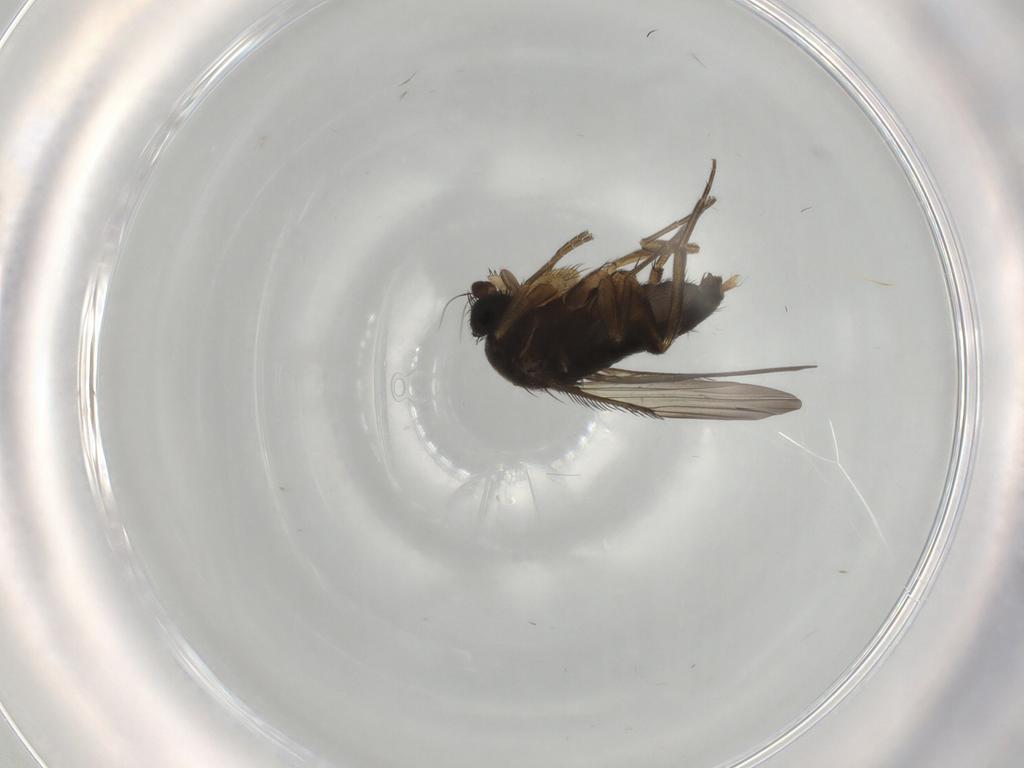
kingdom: Animalia
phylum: Arthropoda
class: Insecta
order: Diptera
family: Phoridae
